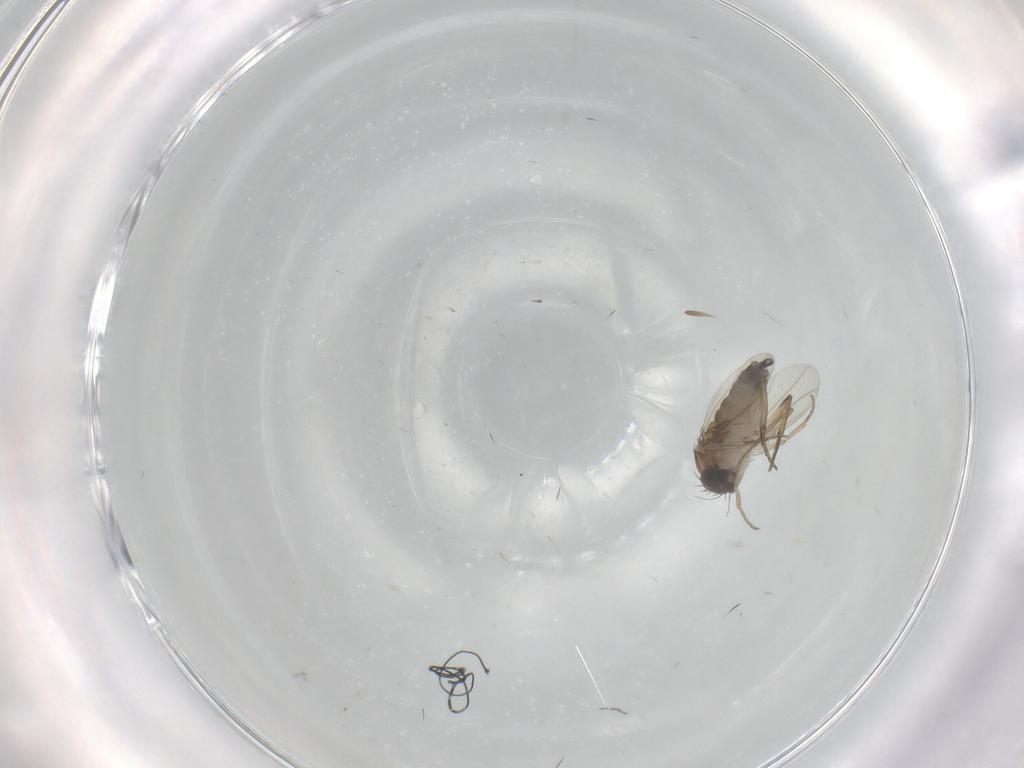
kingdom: Animalia
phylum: Arthropoda
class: Insecta
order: Diptera
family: Phoridae
